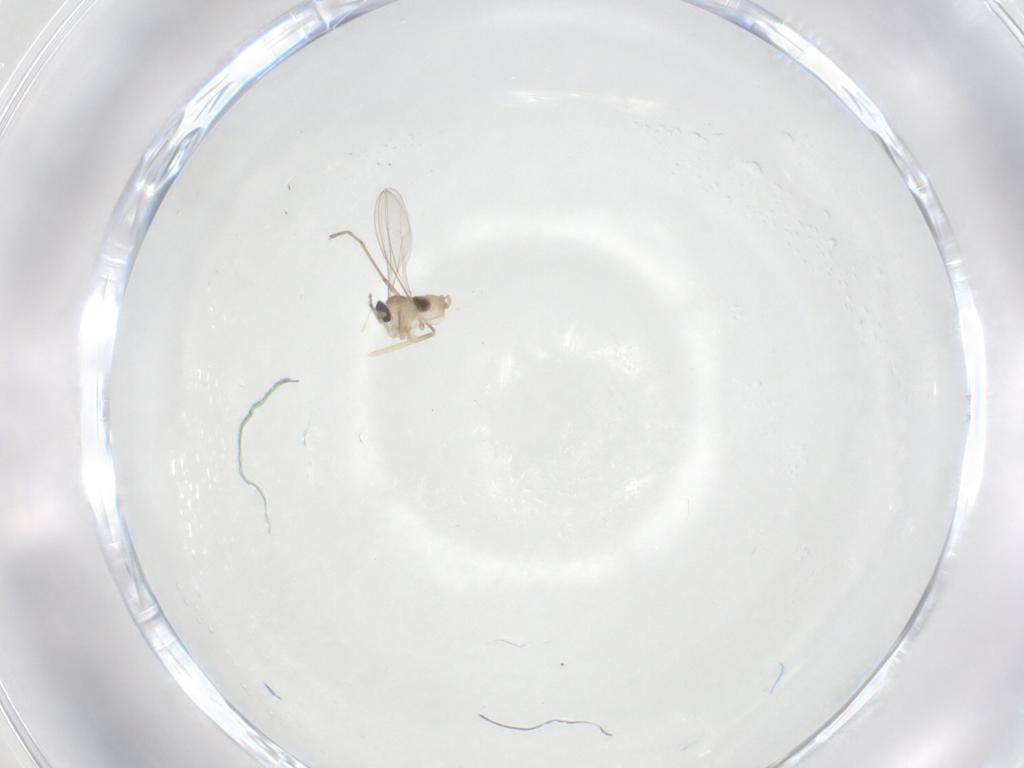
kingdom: Animalia
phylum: Arthropoda
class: Insecta
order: Diptera
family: Cecidomyiidae
